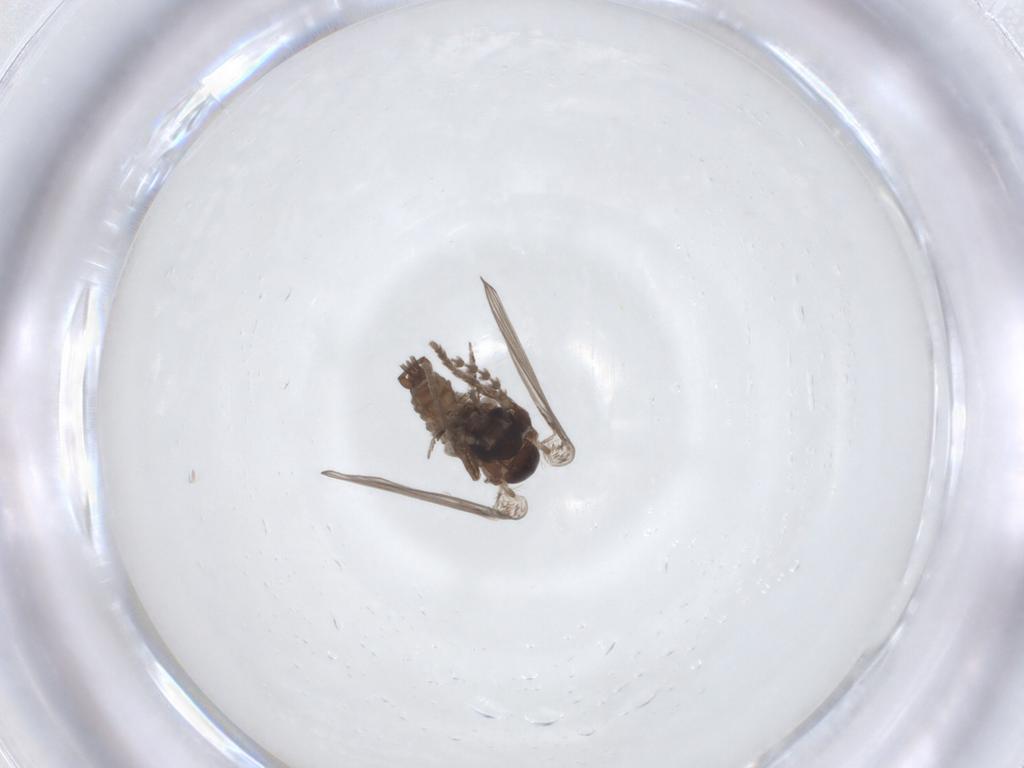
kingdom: Animalia
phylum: Arthropoda
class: Insecta
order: Diptera
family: Psychodidae
